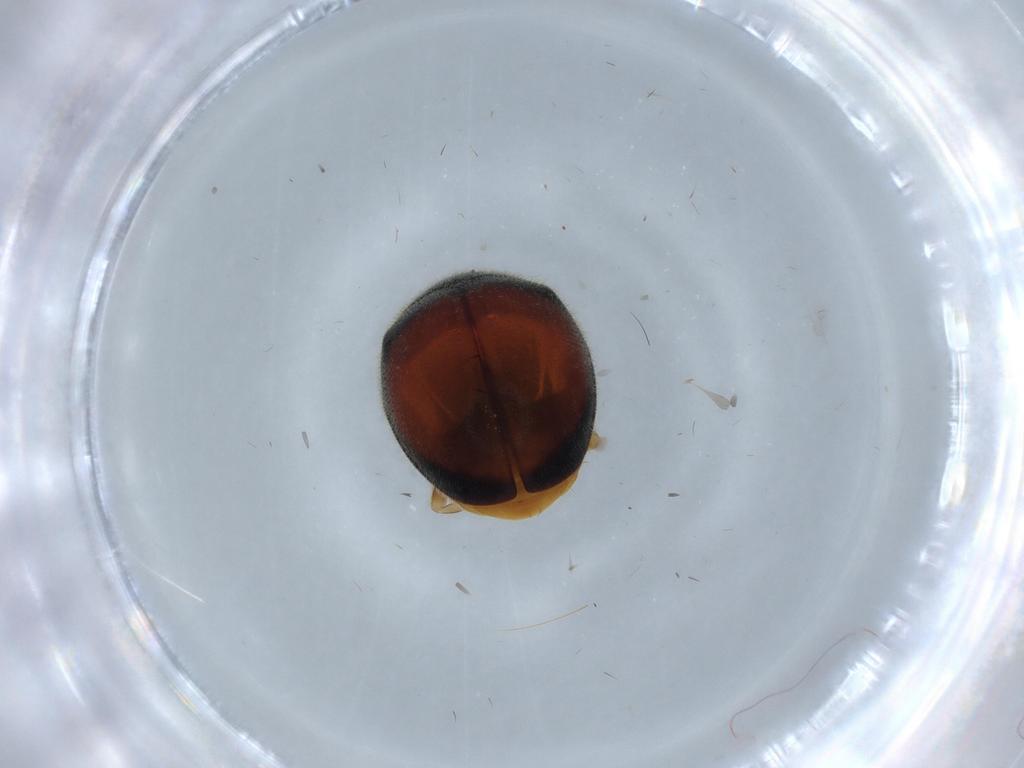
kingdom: Animalia
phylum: Arthropoda
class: Insecta
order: Coleoptera
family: Coccinellidae
